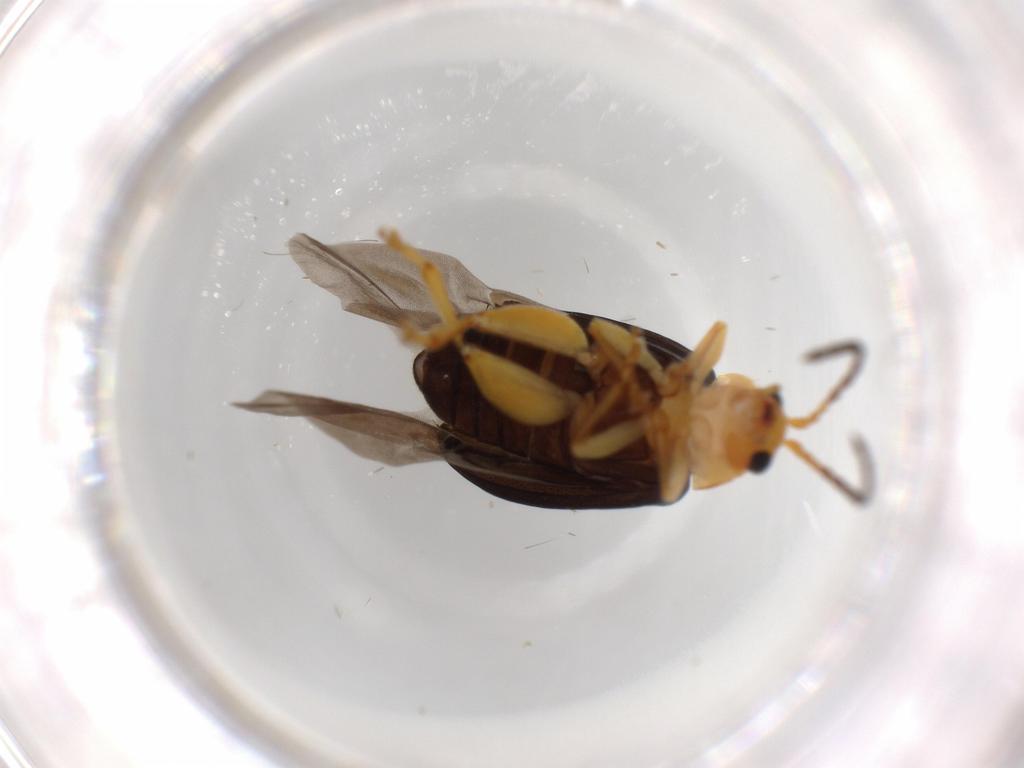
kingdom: Animalia
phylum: Arthropoda
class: Insecta
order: Coleoptera
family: Chrysomelidae
